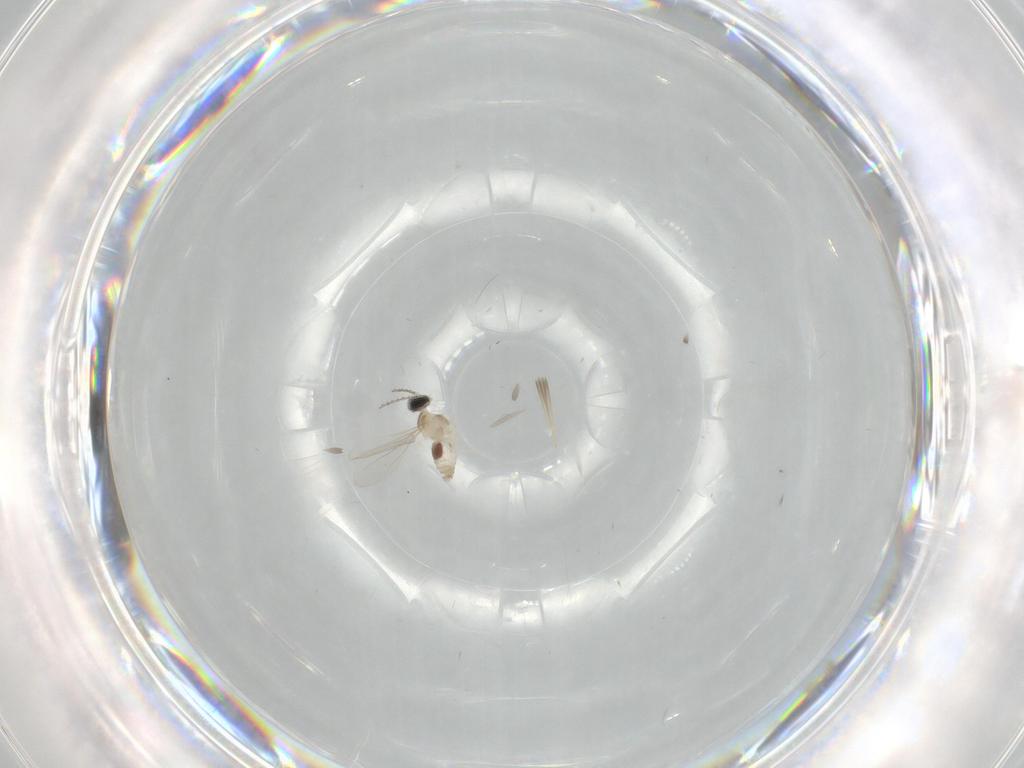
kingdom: Animalia
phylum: Arthropoda
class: Insecta
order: Diptera
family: Cecidomyiidae
